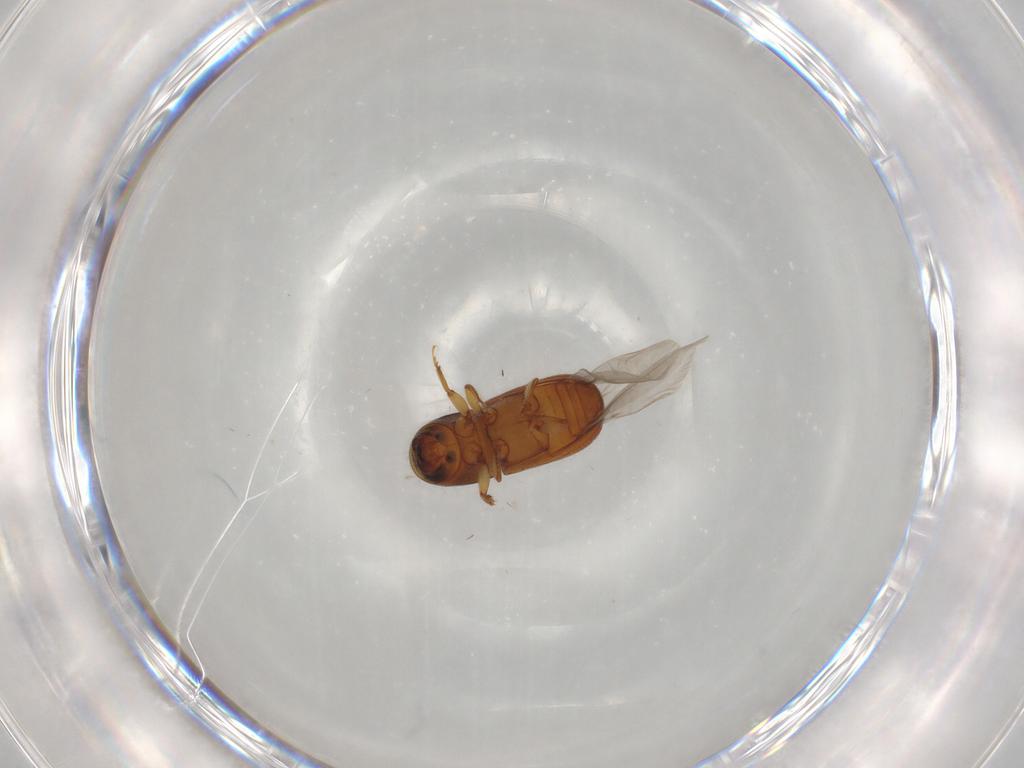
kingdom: Animalia
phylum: Arthropoda
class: Insecta
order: Coleoptera
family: Curculionidae
